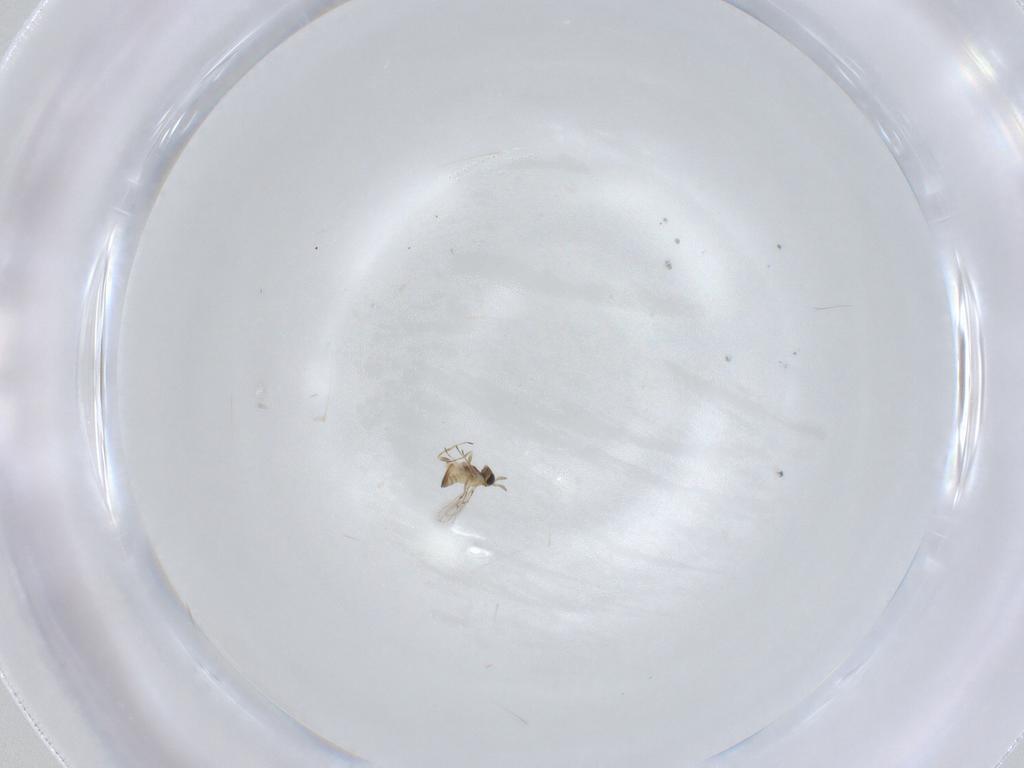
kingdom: Animalia
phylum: Arthropoda
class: Insecta
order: Hymenoptera
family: Trichogrammatidae
